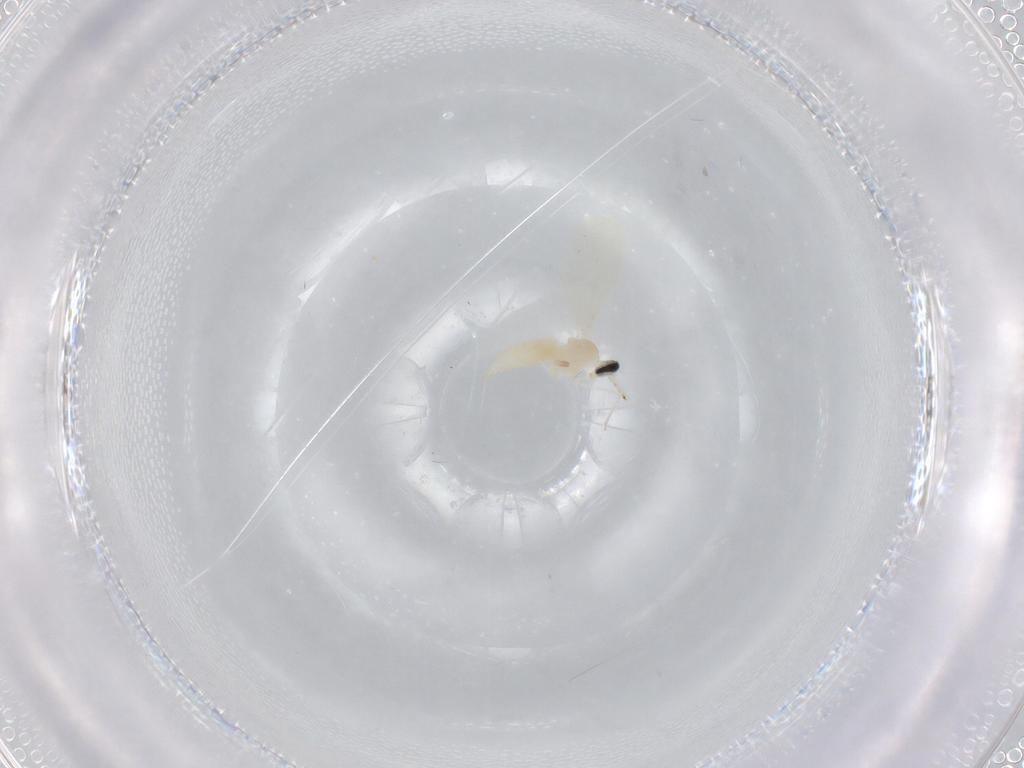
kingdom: Animalia
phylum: Arthropoda
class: Insecta
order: Diptera
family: Cecidomyiidae
